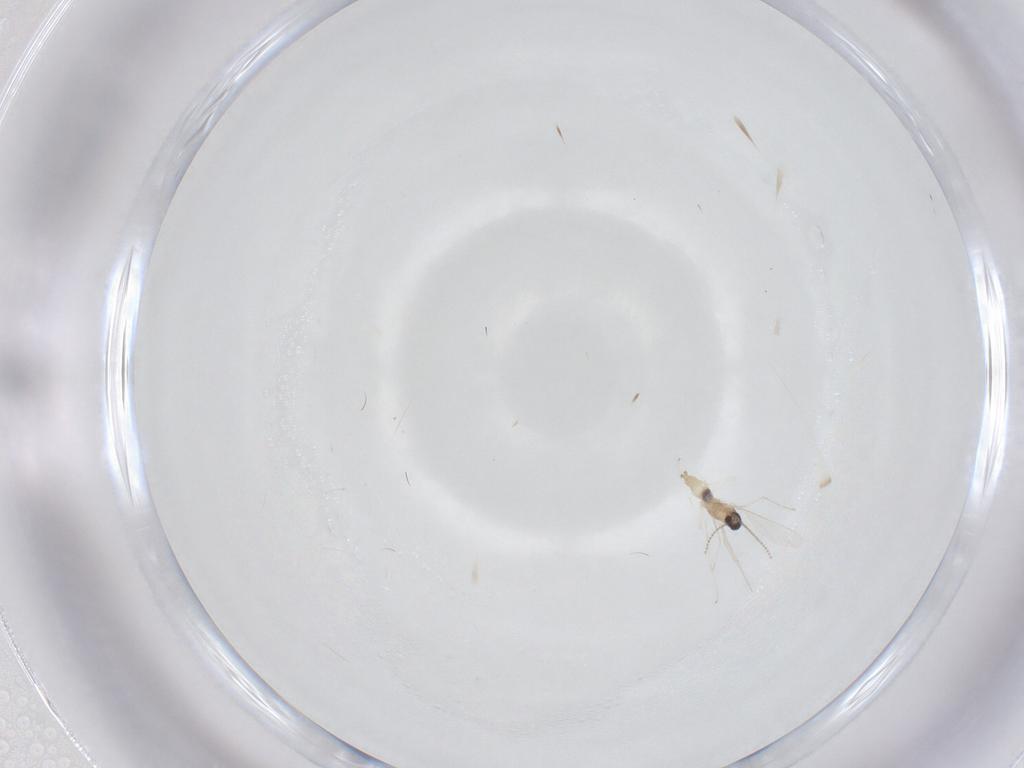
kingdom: Animalia
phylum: Arthropoda
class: Insecta
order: Diptera
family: Cecidomyiidae
